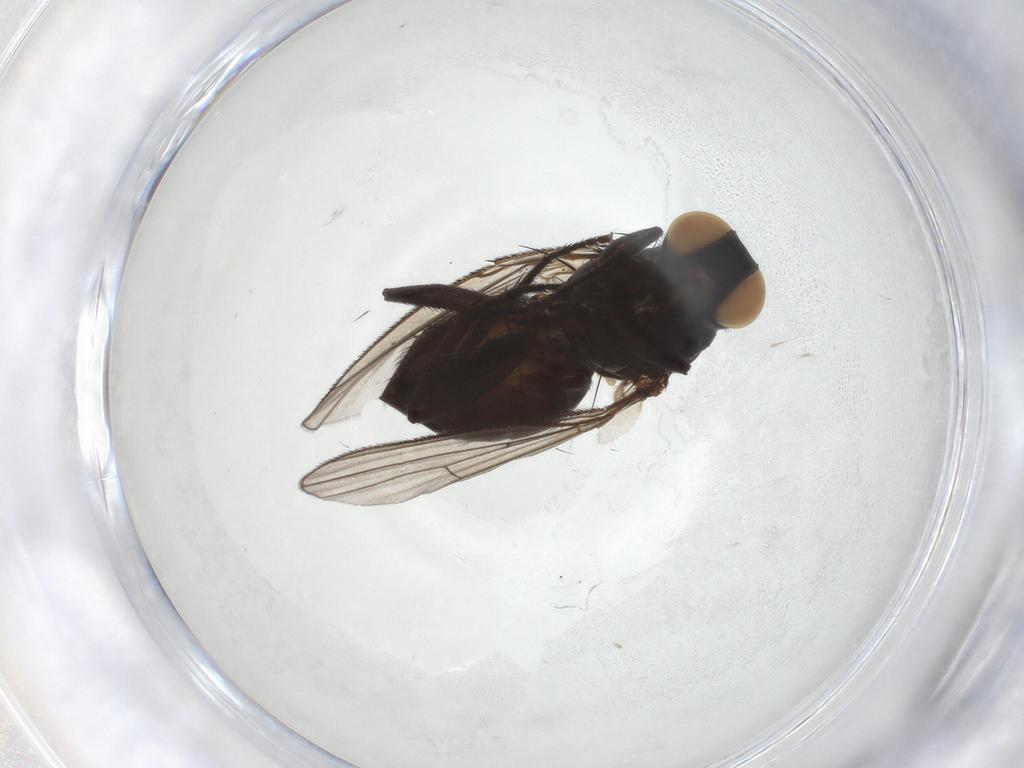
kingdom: Animalia
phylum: Arthropoda
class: Insecta
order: Diptera
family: Muscidae
